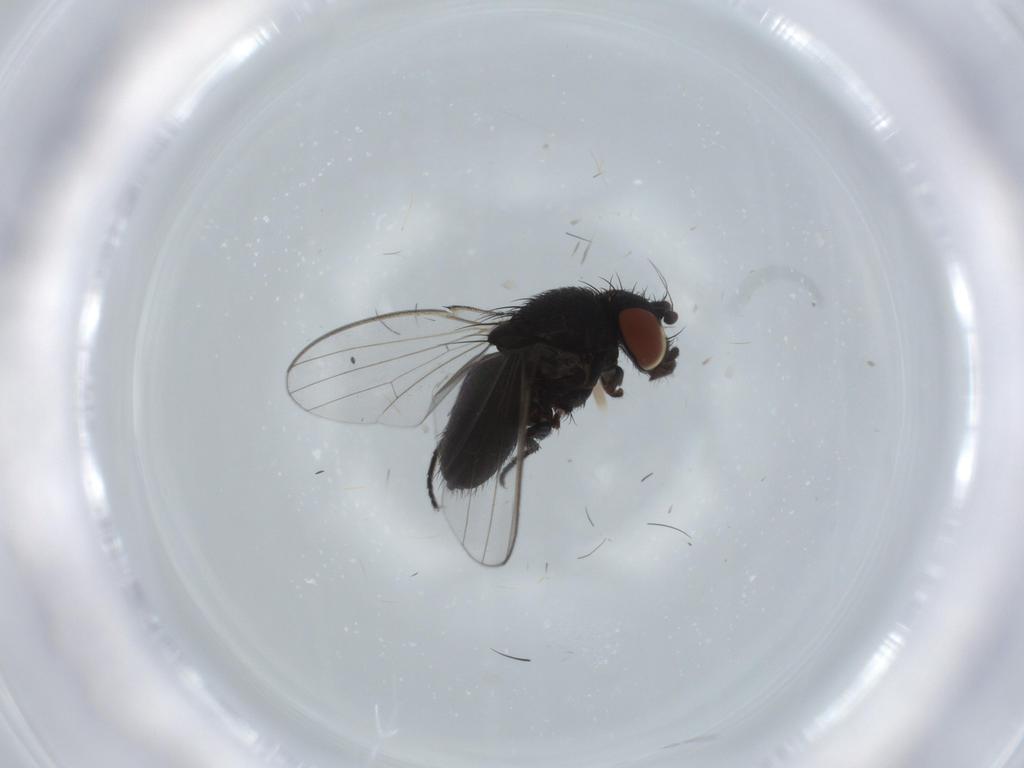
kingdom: Animalia
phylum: Arthropoda
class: Insecta
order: Diptera
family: Milichiidae
